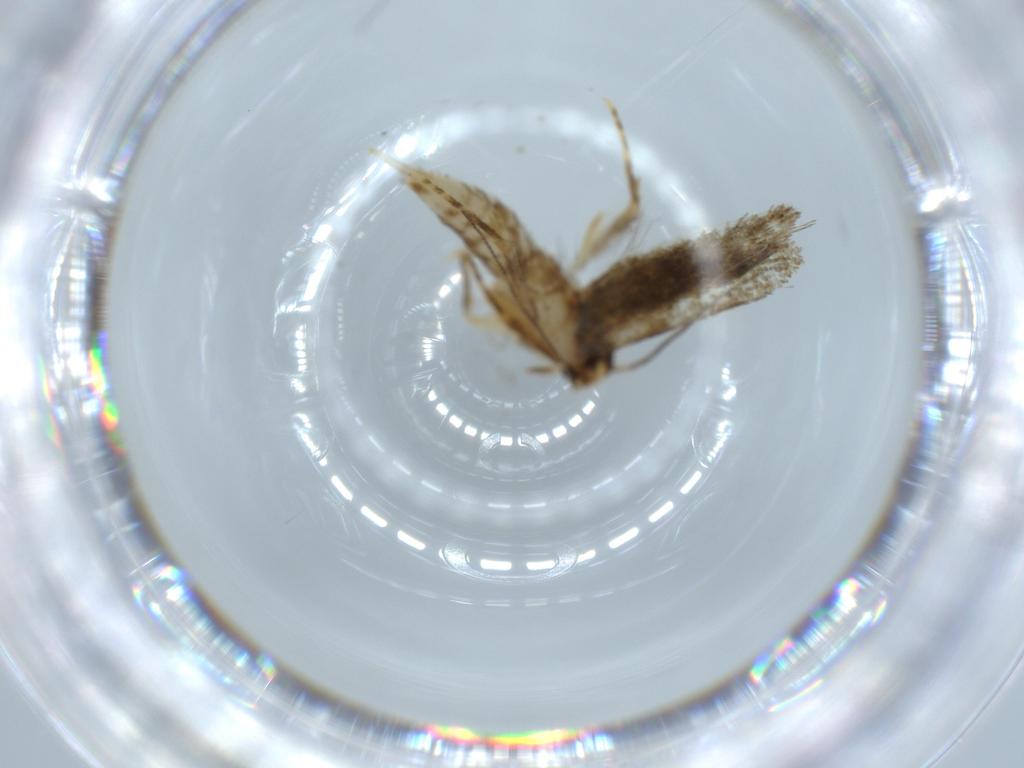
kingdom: Animalia
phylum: Arthropoda
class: Insecta
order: Lepidoptera
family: Tineidae
